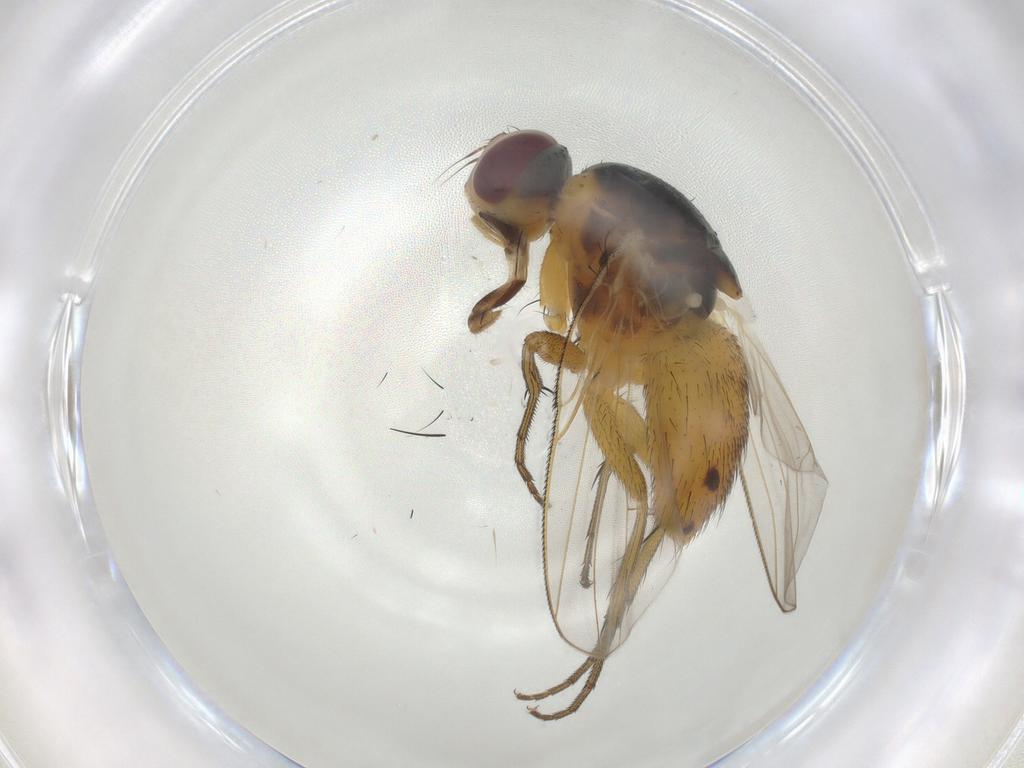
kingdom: Animalia
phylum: Arthropoda
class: Insecta
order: Diptera
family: Muscidae
